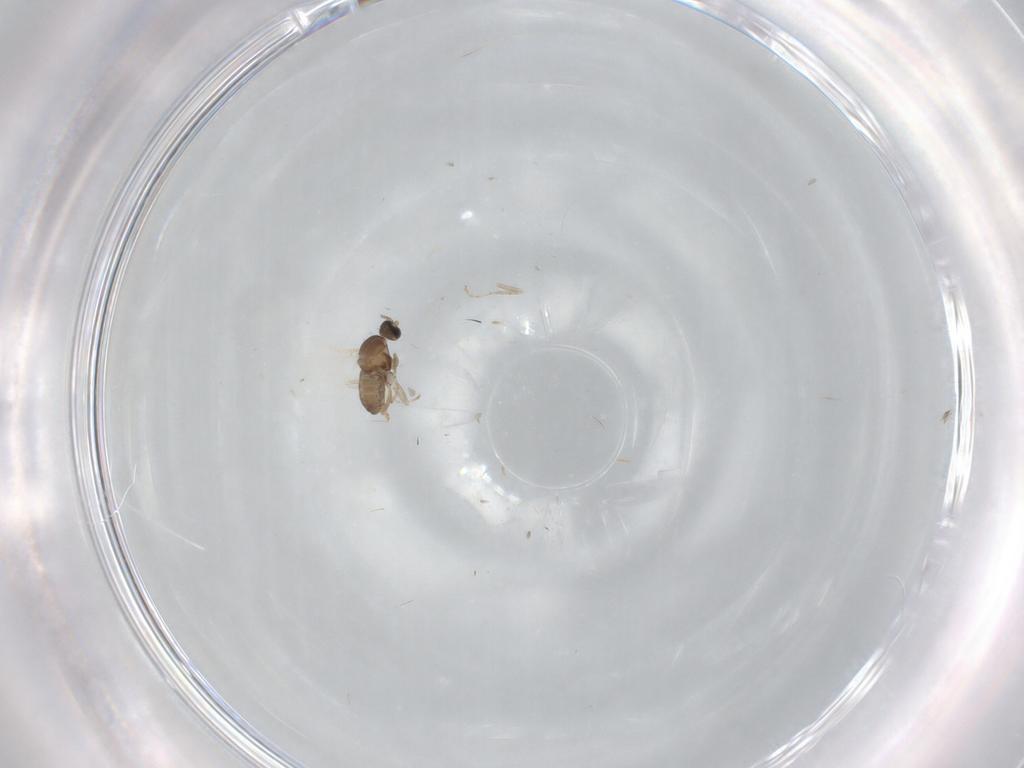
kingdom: Animalia
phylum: Arthropoda
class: Insecta
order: Diptera
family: Cecidomyiidae
